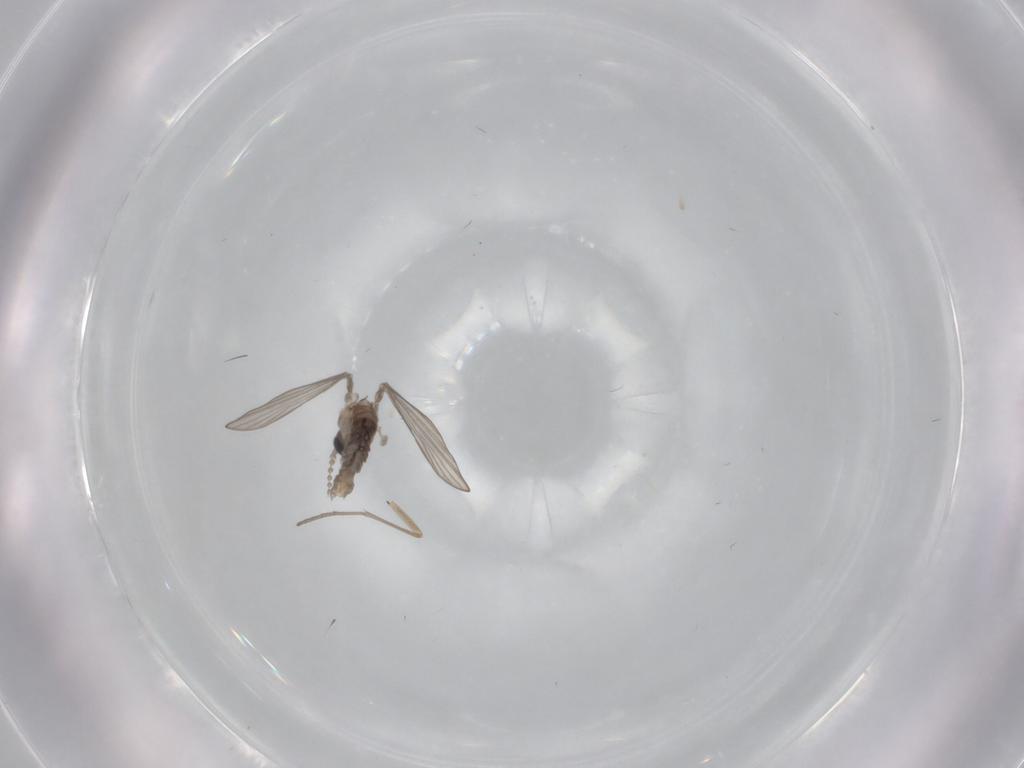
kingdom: Animalia
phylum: Arthropoda
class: Insecta
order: Diptera
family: Psychodidae
